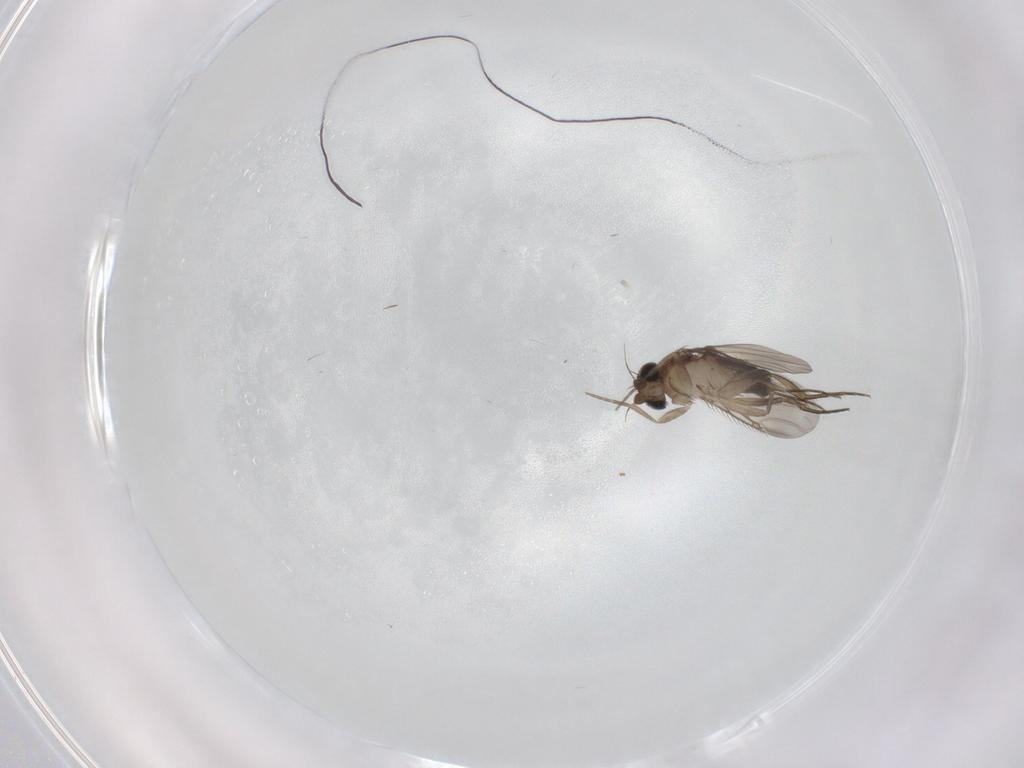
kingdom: Animalia
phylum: Arthropoda
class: Insecta
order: Diptera
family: Phoridae
